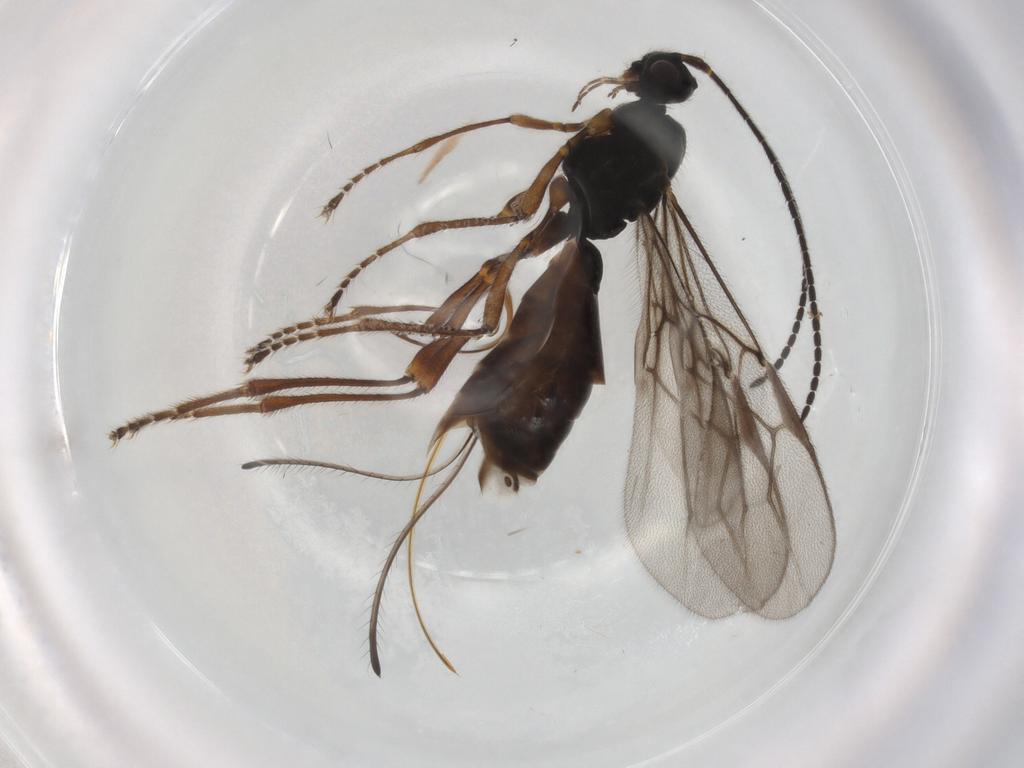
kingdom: Animalia
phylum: Arthropoda
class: Insecta
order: Hymenoptera
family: Braconidae
